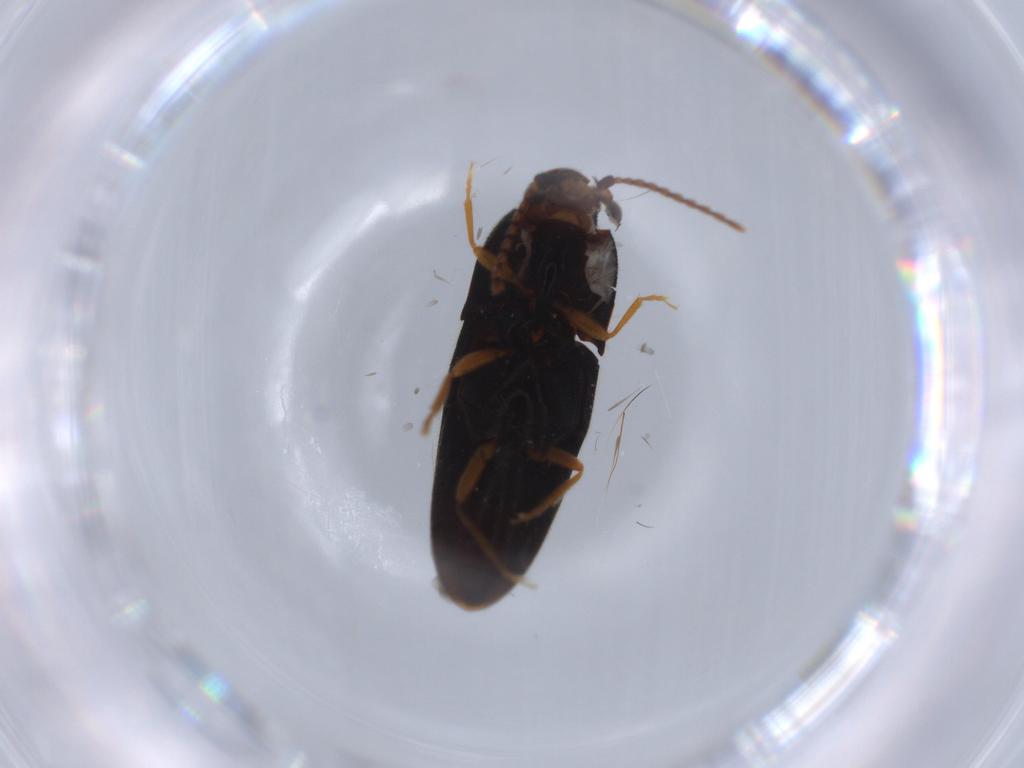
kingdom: Animalia
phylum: Arthropoda
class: Insecta
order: Coleoptera
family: Elateridae
